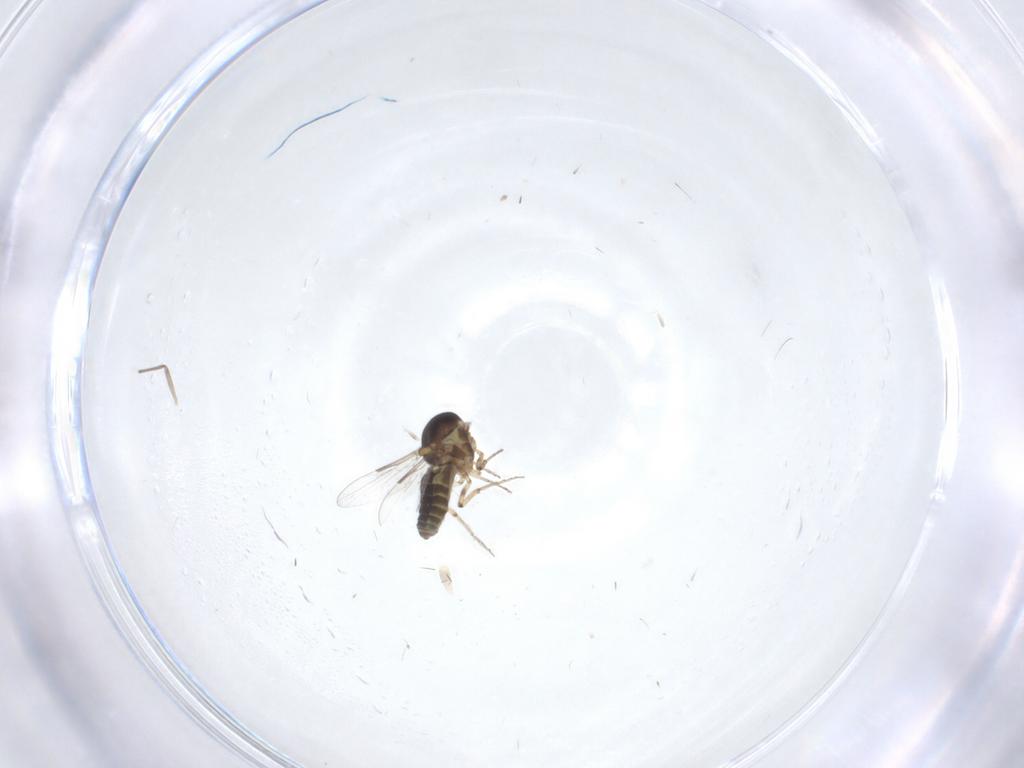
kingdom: Animalia
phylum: Arthropoda
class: Insecta
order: Diptera
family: Ceratopogonidae
